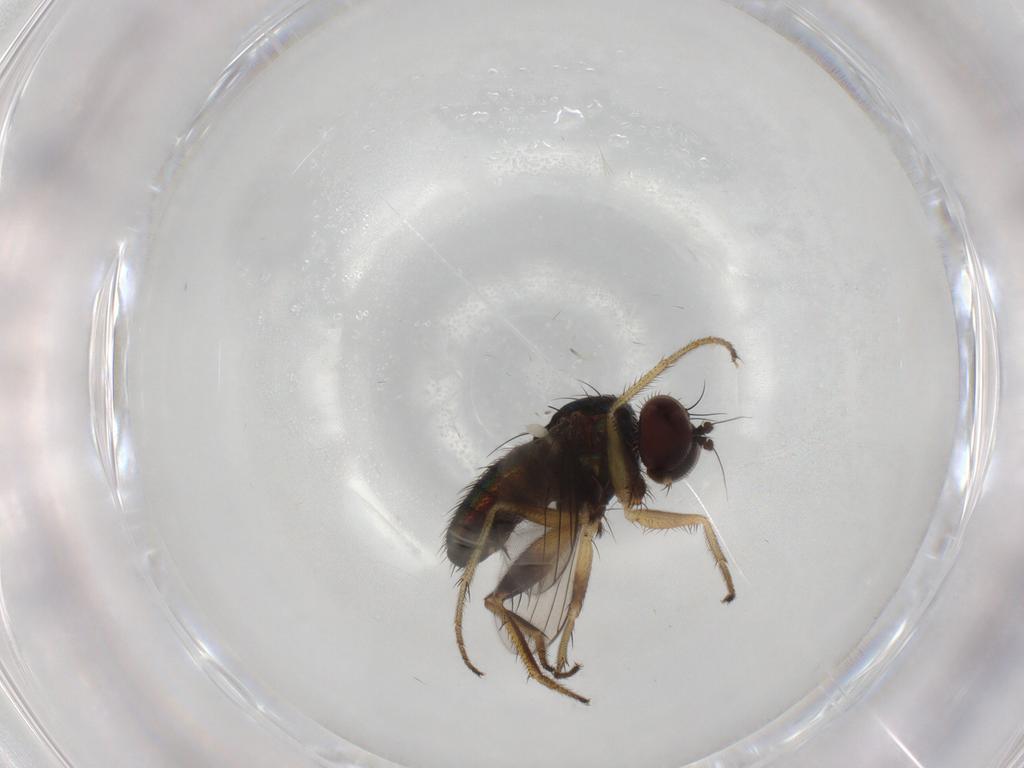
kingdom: Animalia
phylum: Arthropoda
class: Insecta
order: Diptera
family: Dolichopodidae
